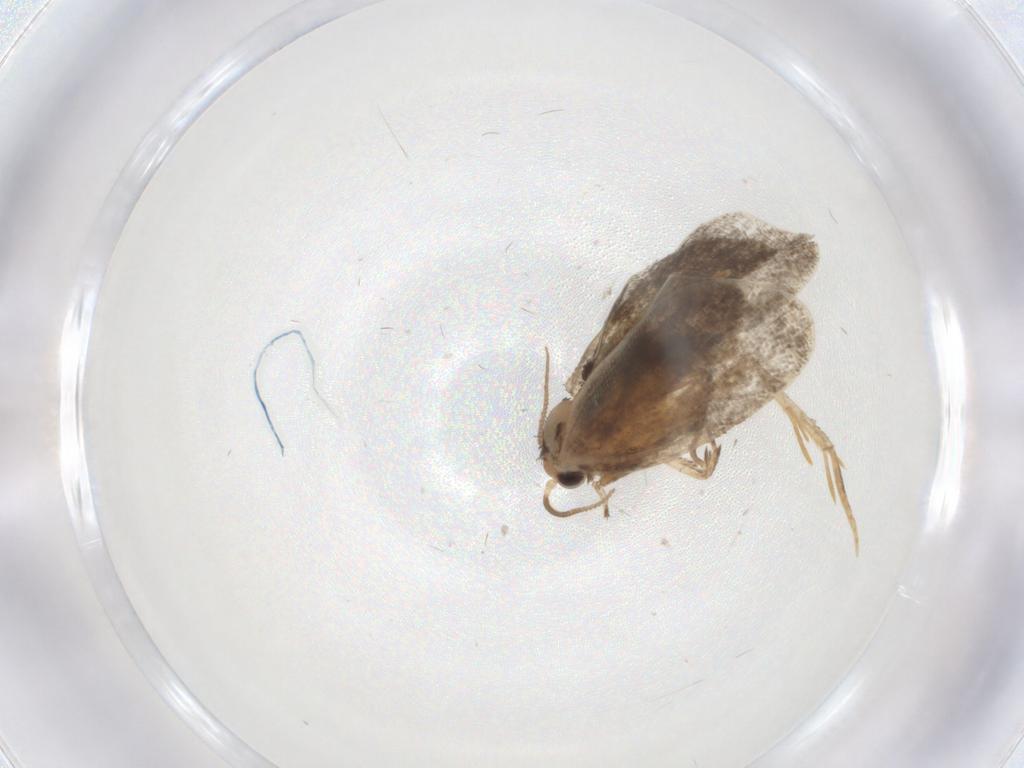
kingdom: Animalia
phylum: Arthropoda
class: Insecta
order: Lepidoptera
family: Psychidae
